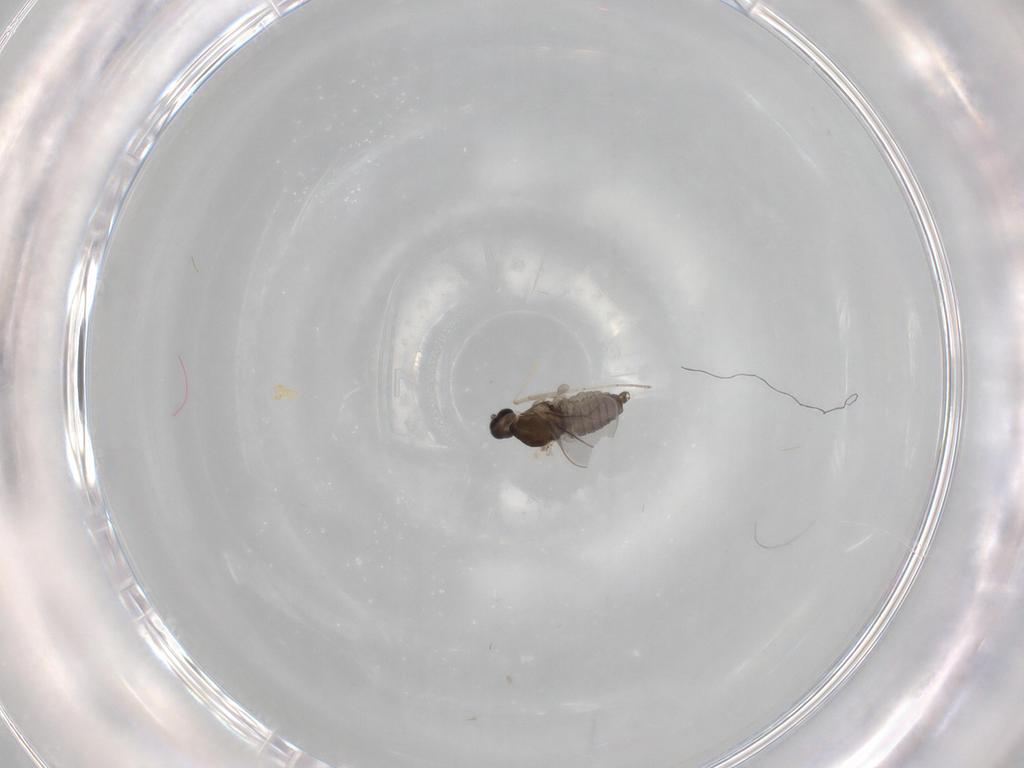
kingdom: Animalia
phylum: Arthropoda
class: Insecta
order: Diptera
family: Cecidomyiidae
